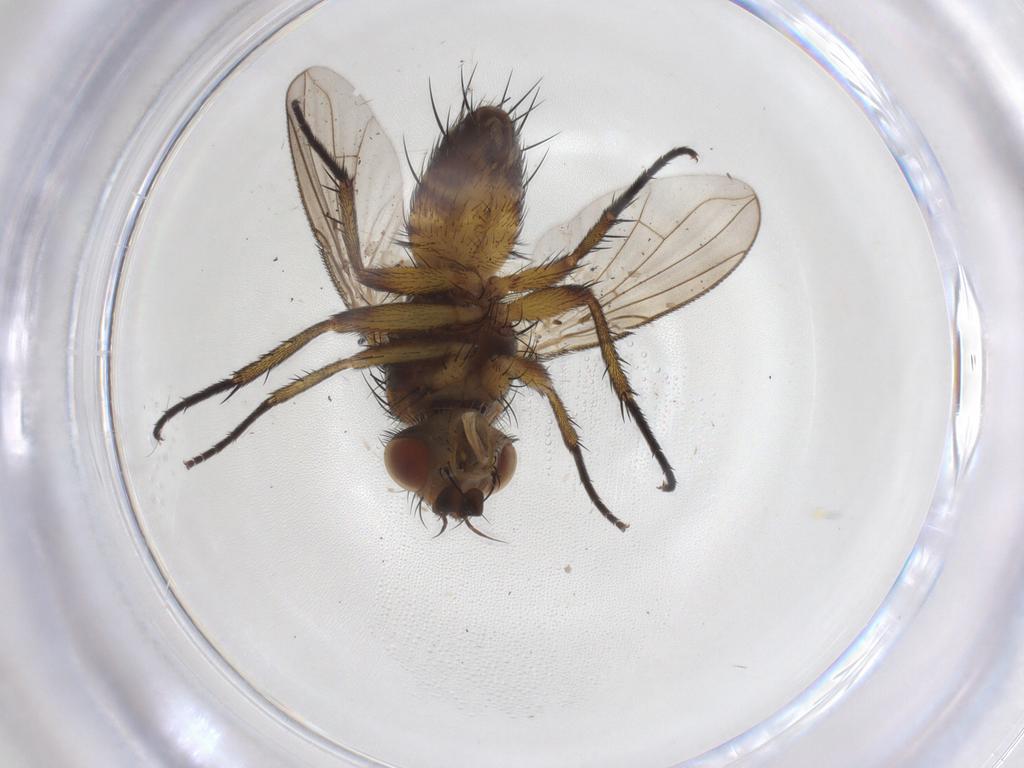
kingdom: Animalia
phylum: Arthropoda
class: Insecta
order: Diptera
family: Tachinidae
